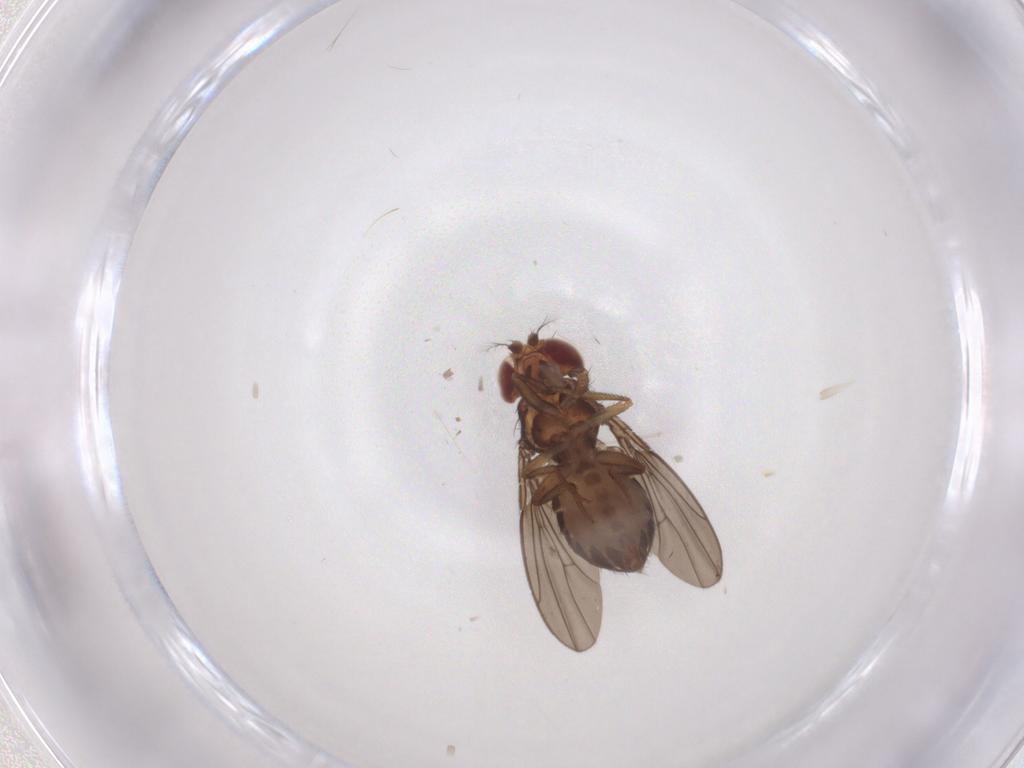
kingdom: Animalia
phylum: Arthropoda
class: Insecta
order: Diptera
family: Drosophilidae
